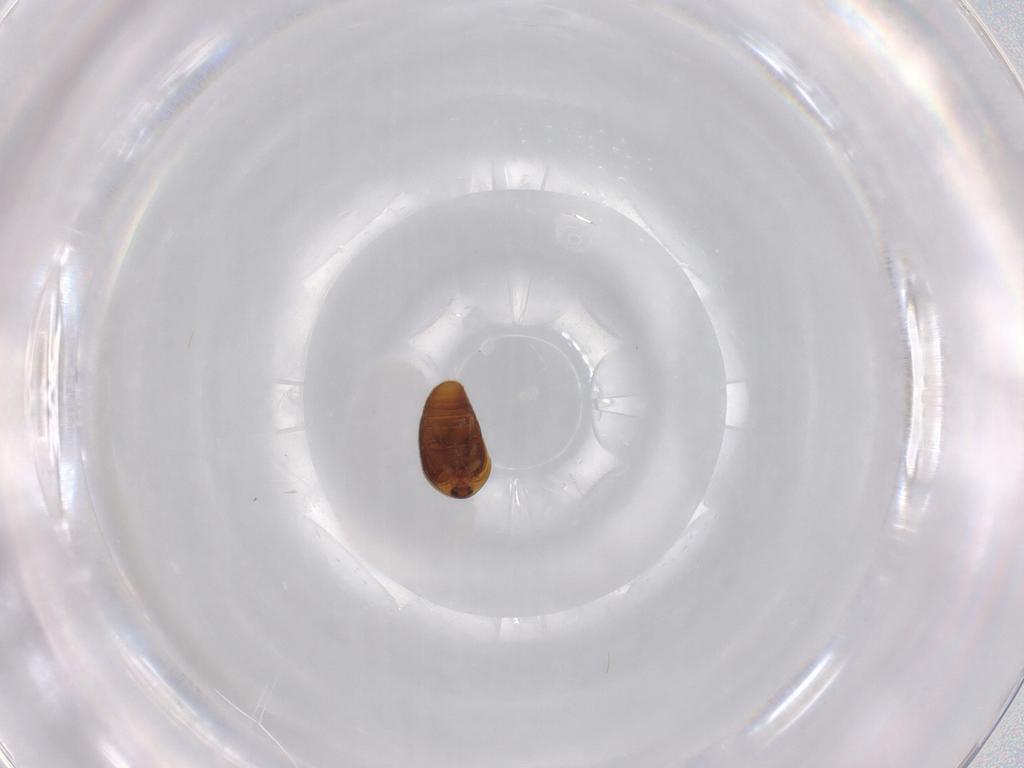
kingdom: Animalia
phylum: Arthropoda
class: Insecta
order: Coleoptera
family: Corylophidae
